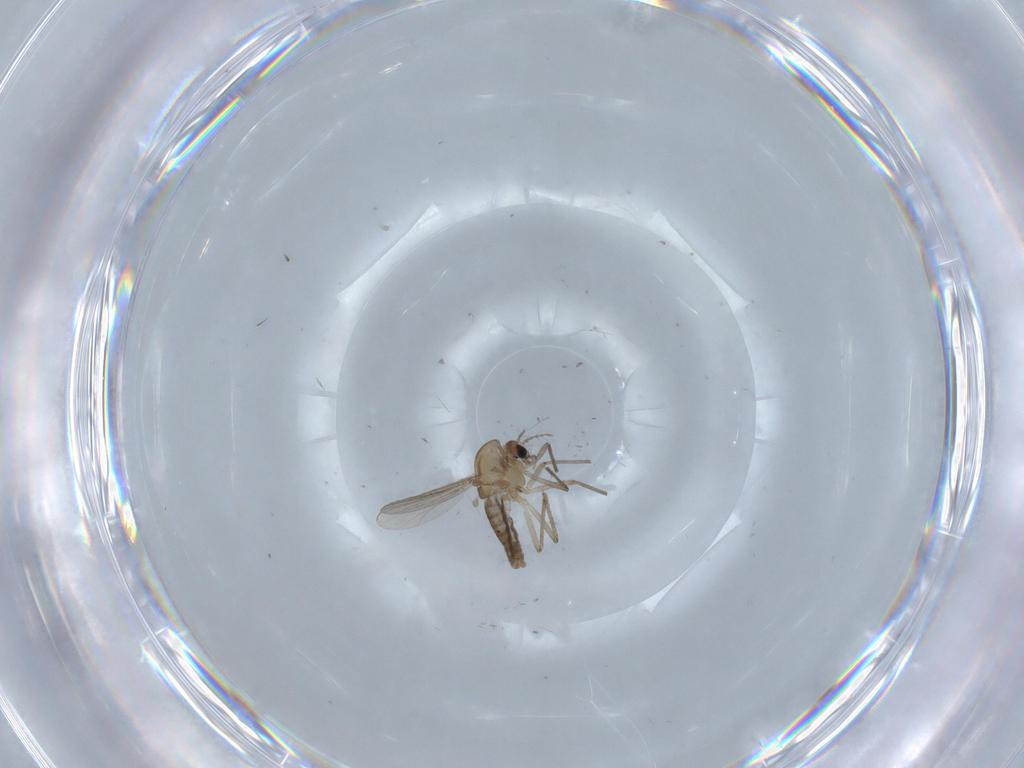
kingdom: Animalia
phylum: Arthropoda
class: Insecta
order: Diptera
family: Chironomidae
